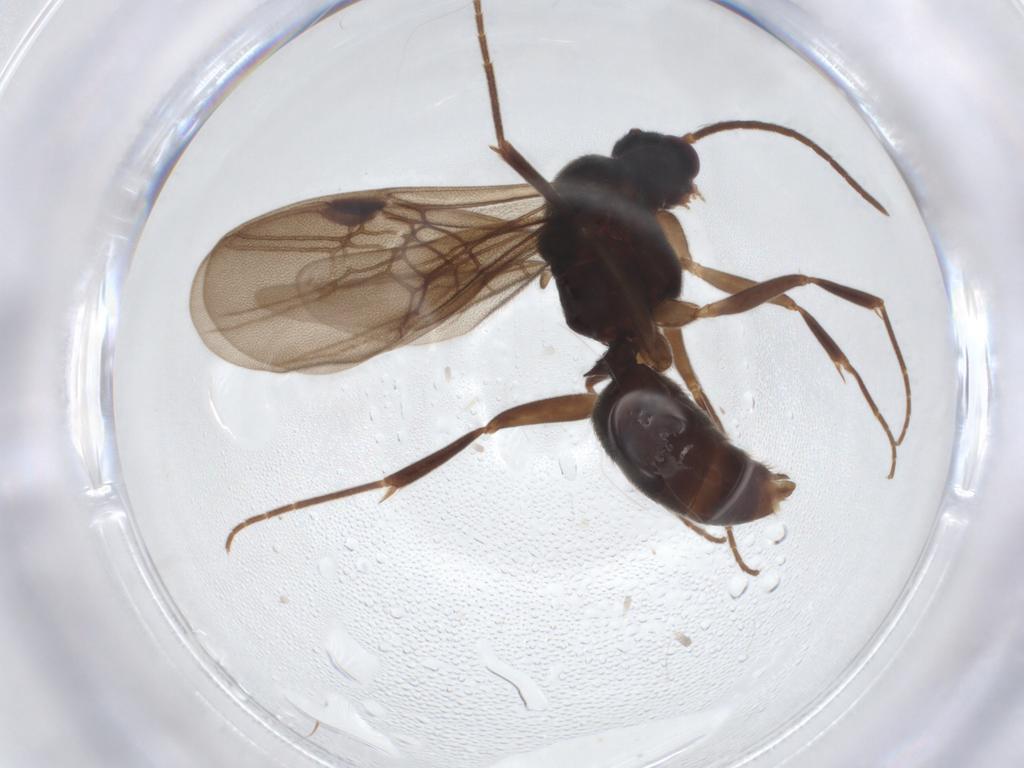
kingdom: Animalia
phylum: Arthropoda
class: Insecta
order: Hymenoptera
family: Formicidae
